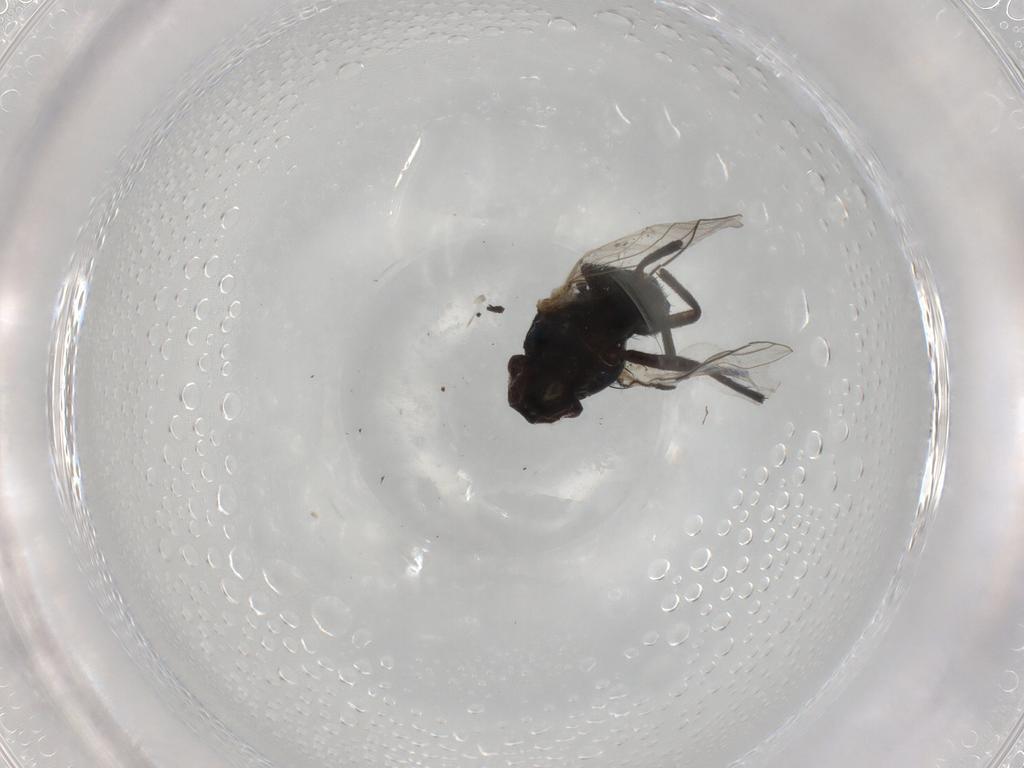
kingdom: Animalia
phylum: Arthropoda
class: Insecta
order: Diptera
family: Agromyzidae
